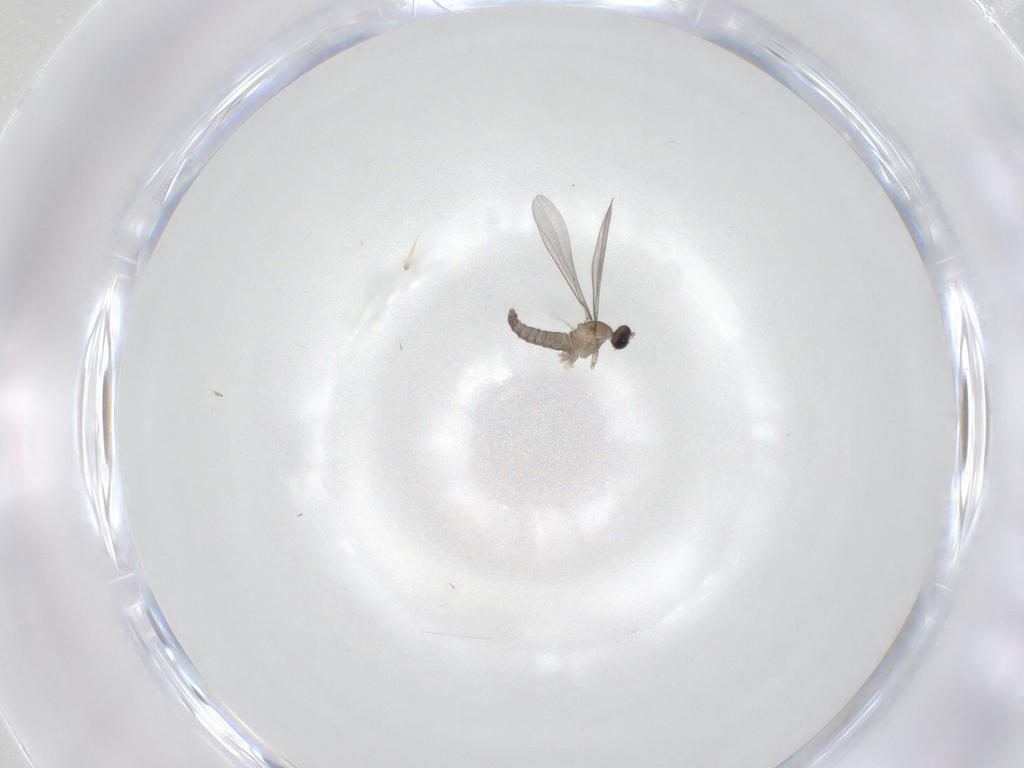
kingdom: Animalia
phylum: Arthropoda
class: Insecta
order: Diptera
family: Cecidomyiidae
